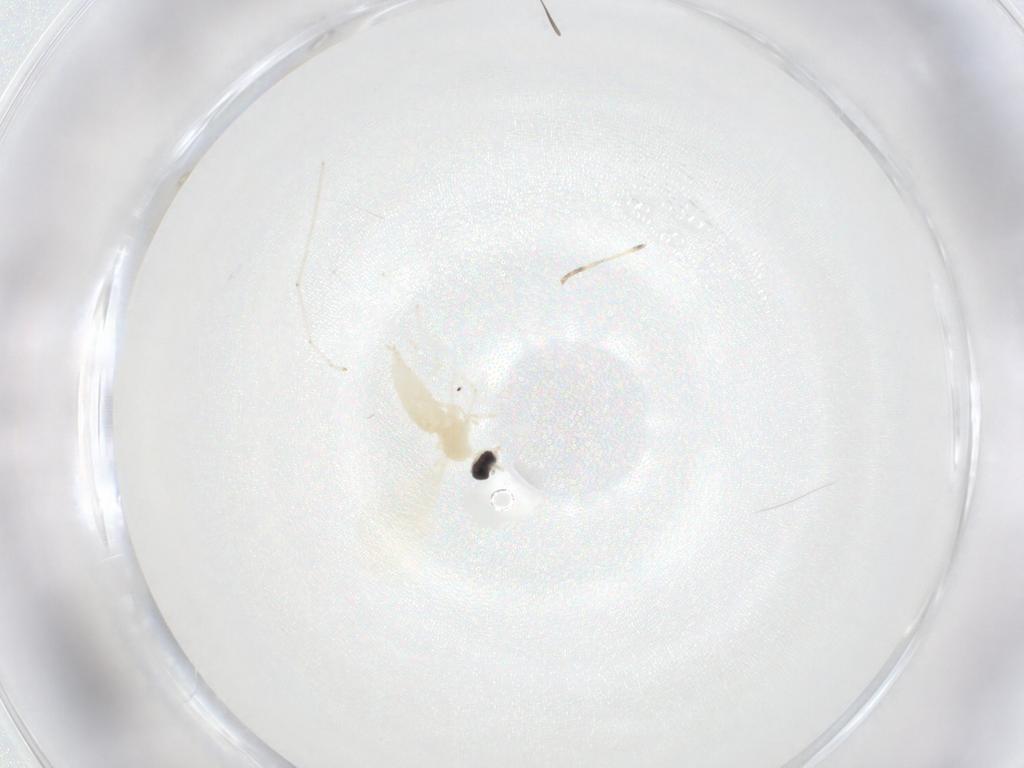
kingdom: Animalia
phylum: Arthropoda
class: Insecta
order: Diptera
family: Cecidomyiidae
